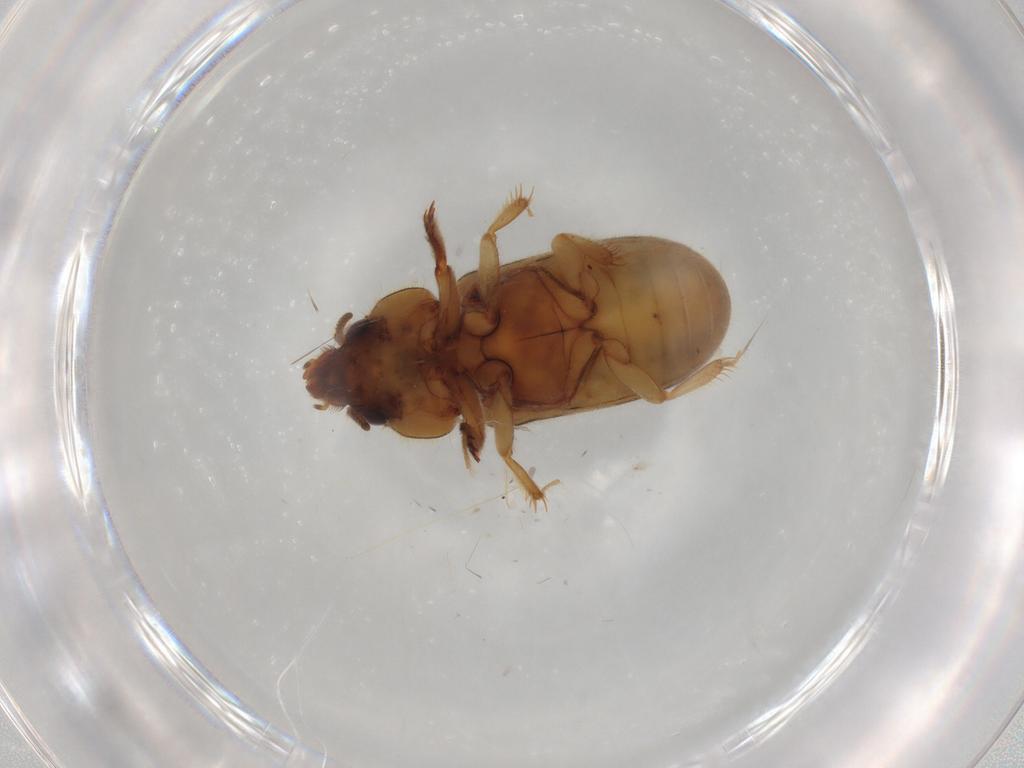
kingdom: Animalia
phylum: Arthropoda
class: Insecta
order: Coleoptera
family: Heteroceridae
